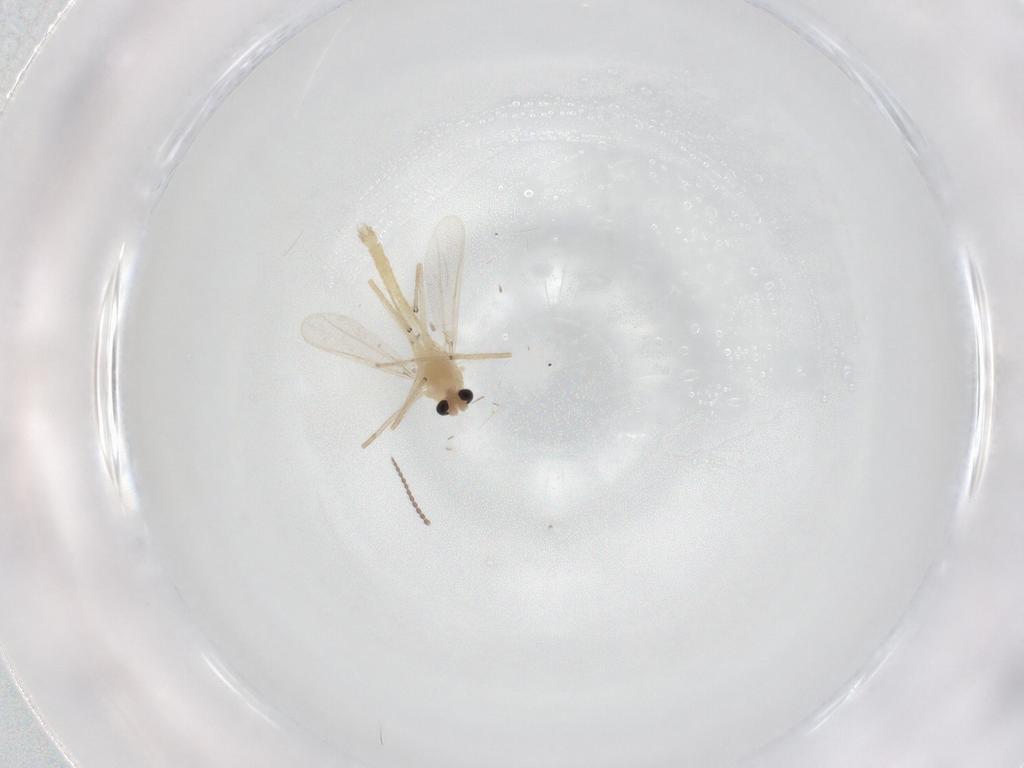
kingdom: Animalia
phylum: Arthropoda
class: Insecta
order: Diptera
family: Chironomidae
